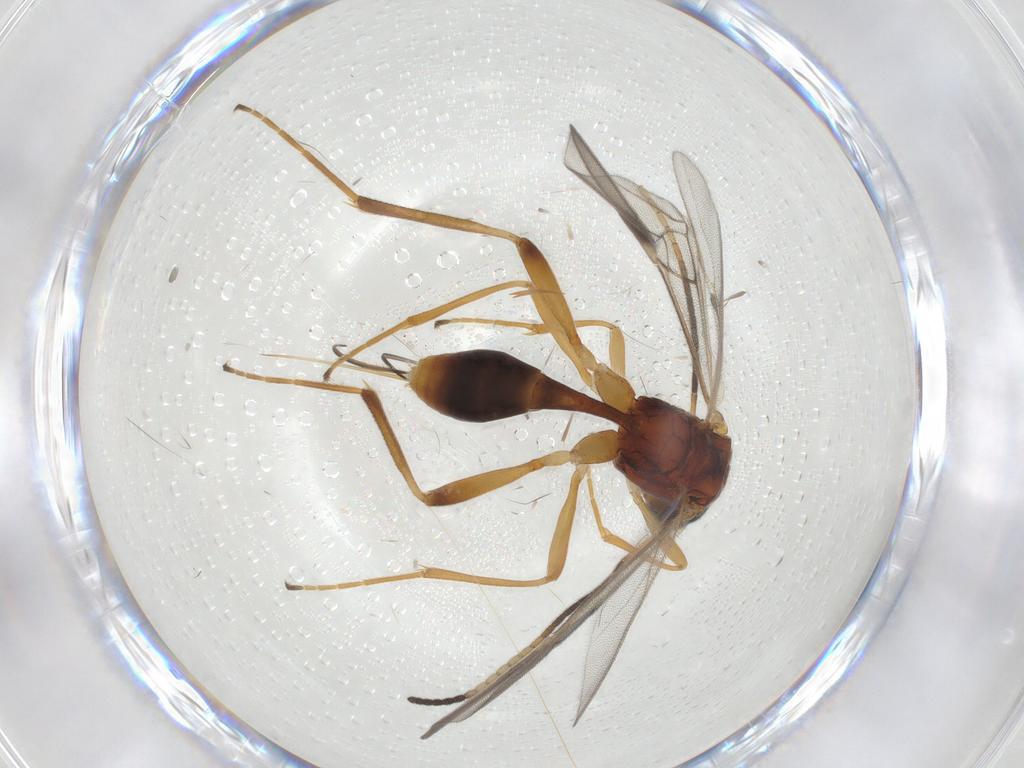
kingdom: Animalia
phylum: Arthropoda
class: Insecta
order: Hymenoptera
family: Braconidae
